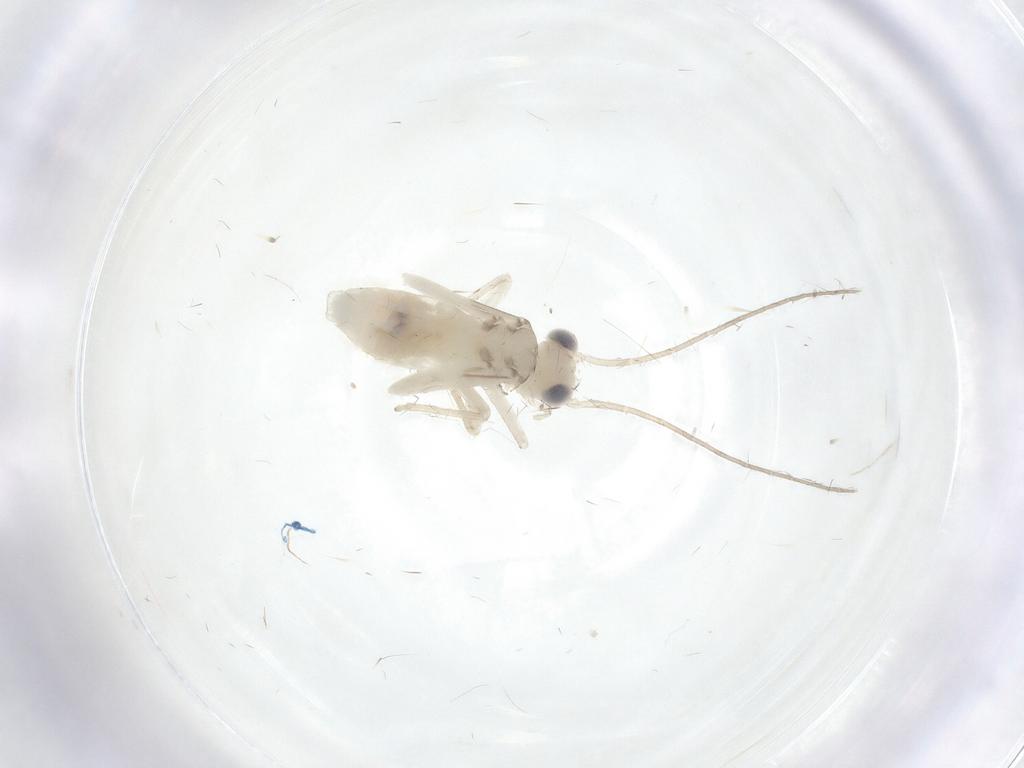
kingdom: Animalia
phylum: Arthropoda
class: Insecta
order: Psocodea
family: Caeciliusidae
